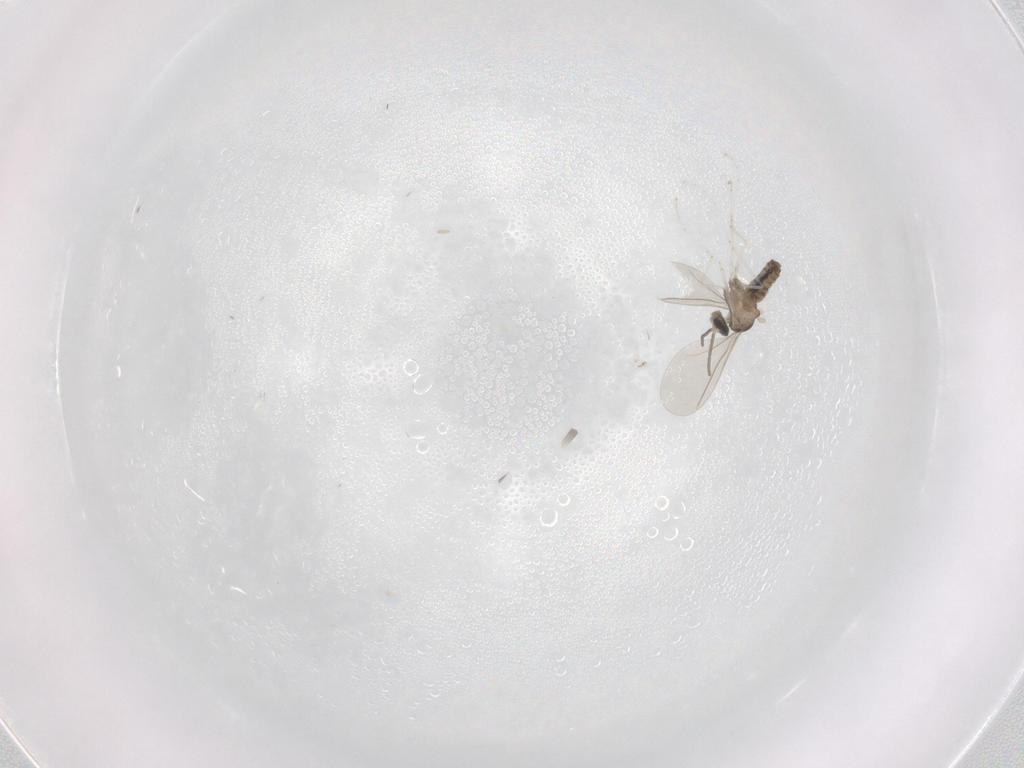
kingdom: Animalia
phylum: Arthropoda
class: Insecta
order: Diptera
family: Cecidomyiidae
